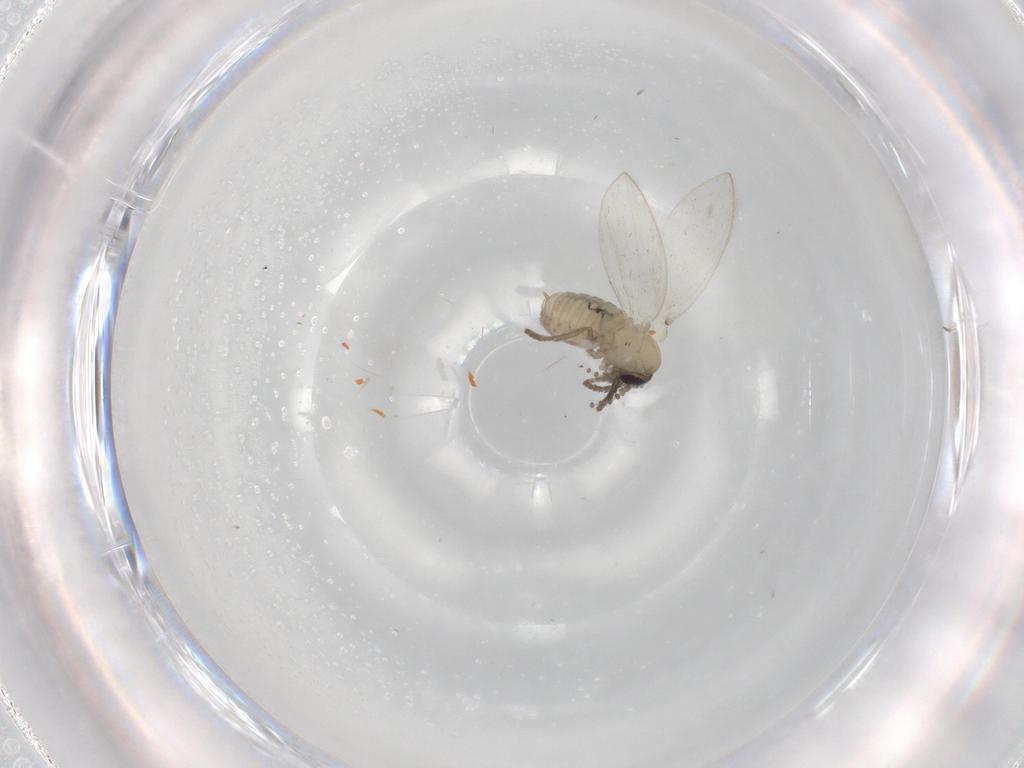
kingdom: Animalia
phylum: Arthropoda
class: Insecta
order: Diptera
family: Psychodidae
